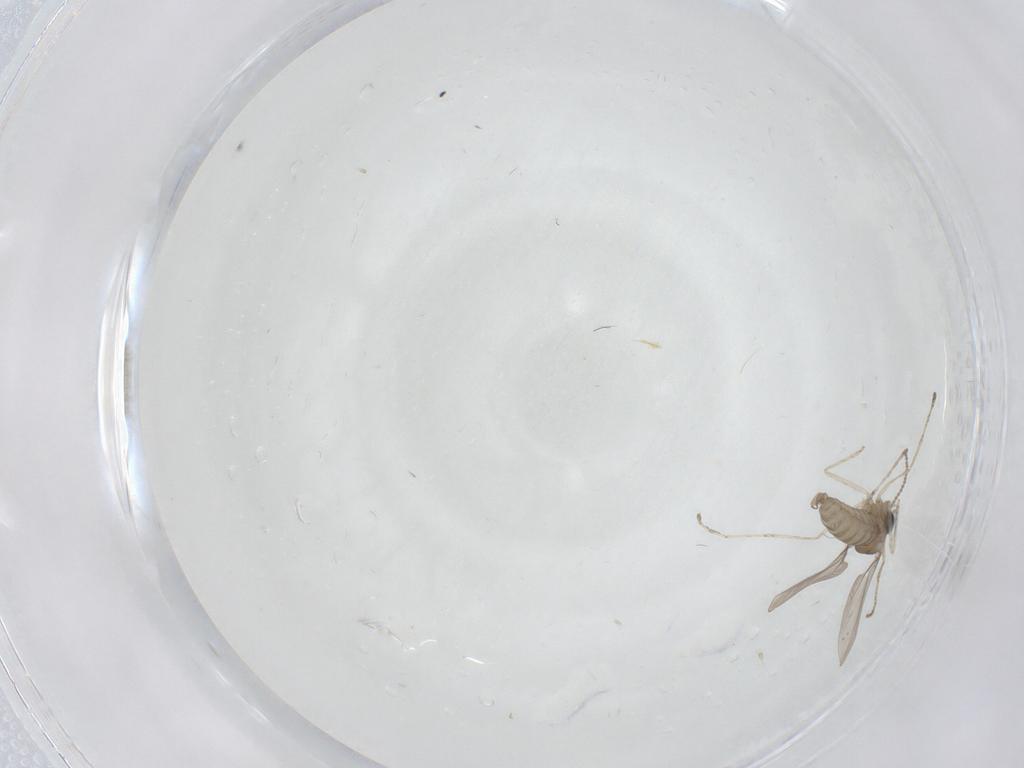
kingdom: Animalia
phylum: Arthropoda
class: Insecta
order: Diptera
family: Cecidomyiidae
